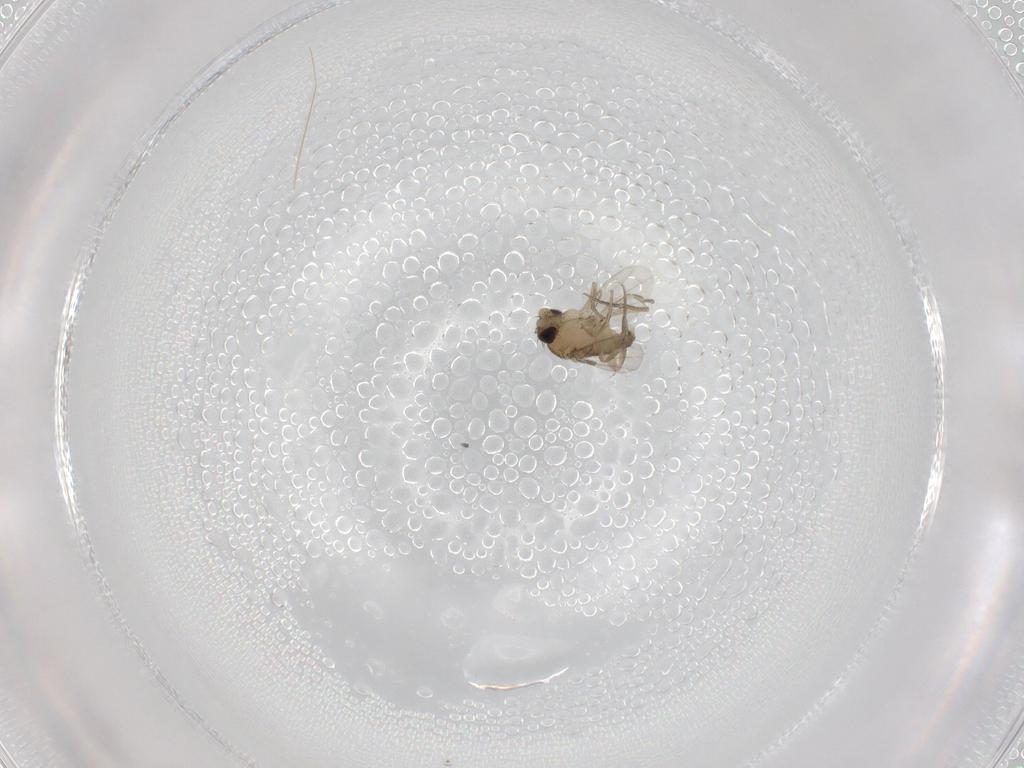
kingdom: Animalia
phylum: Arthropoda
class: Insecta
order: Diptera
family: Phoridae
